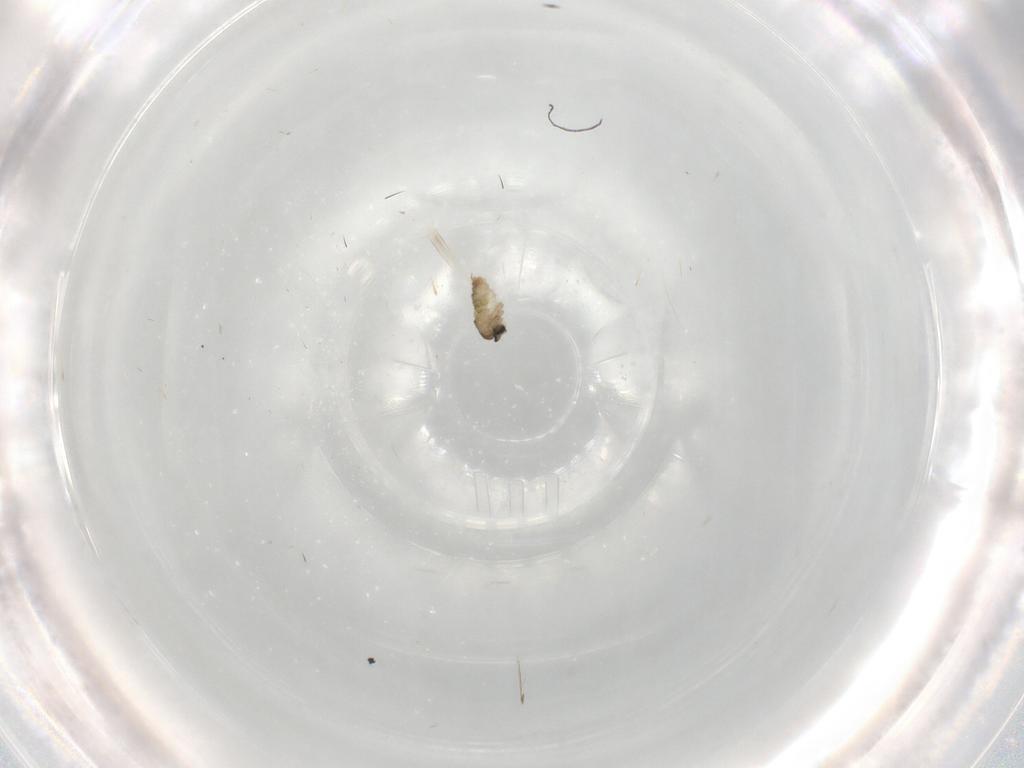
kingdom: Animalia
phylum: Arthropoda
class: Insecta
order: Diptera
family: Cecidomyiidae
